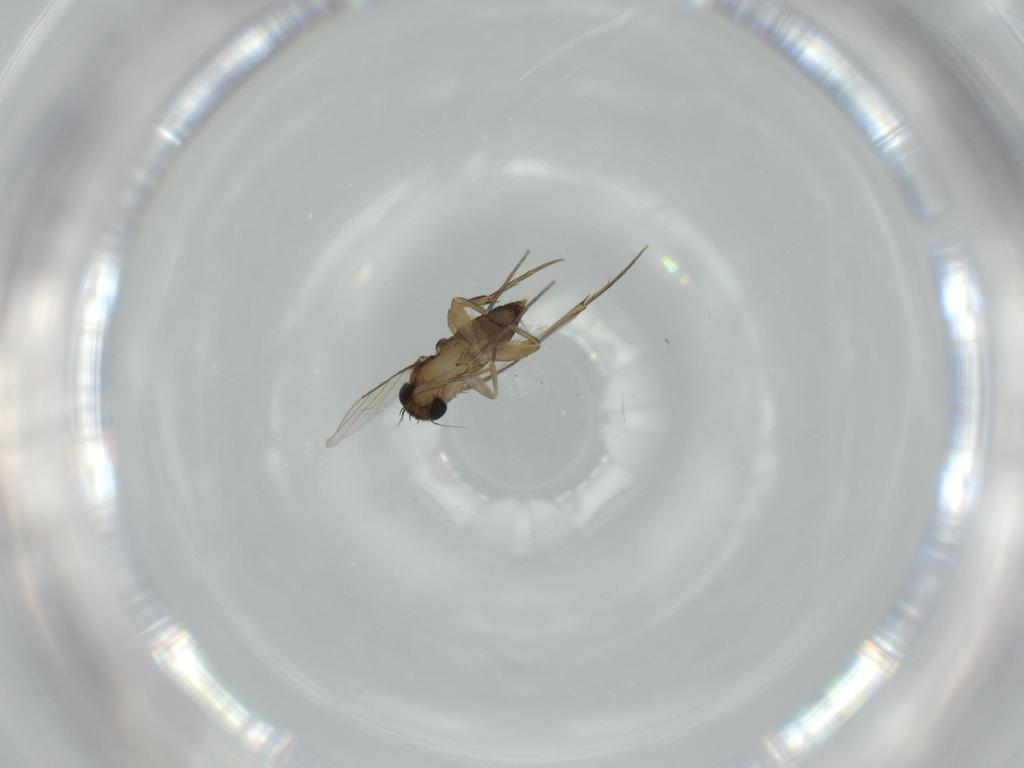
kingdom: Animalia
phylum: Arthropoda
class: Insecta
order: Diptera
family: Phoridae
